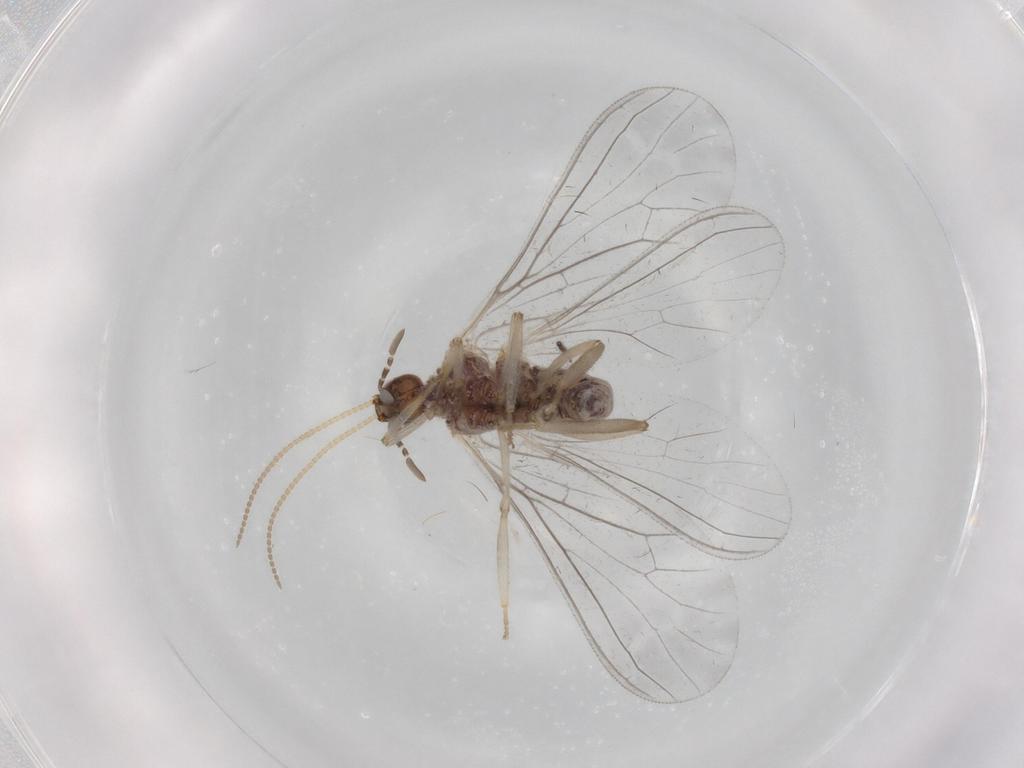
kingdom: Animalia
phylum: Arthropoda
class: Insecta
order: Neuroptera
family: Coniopterygidae
